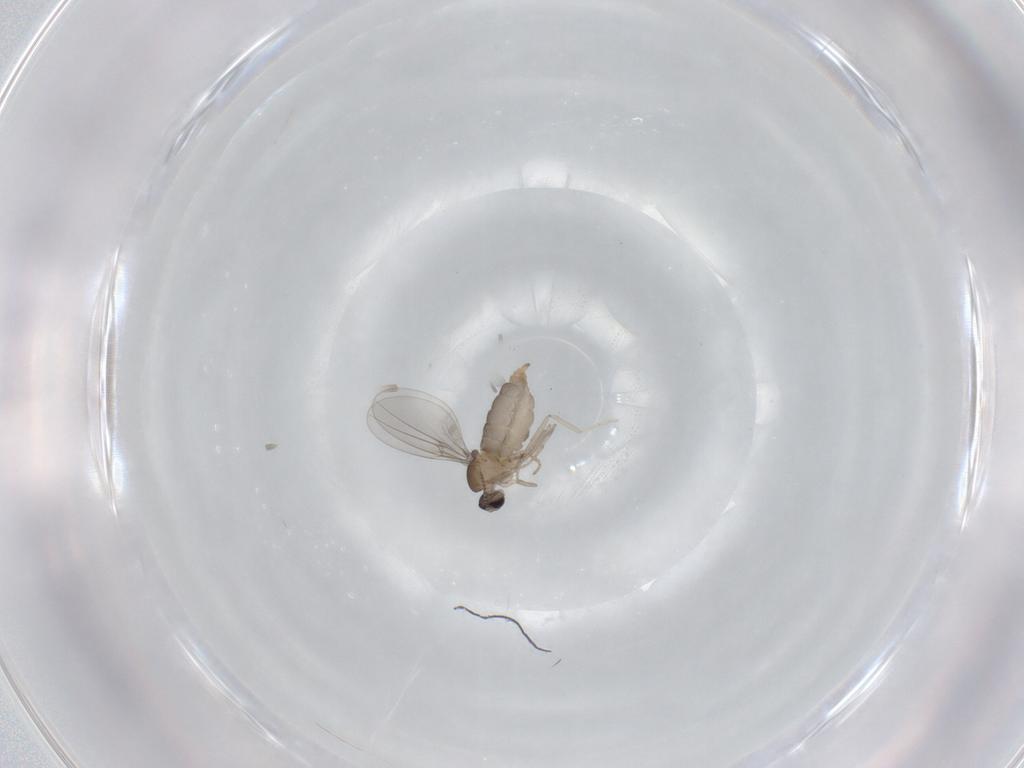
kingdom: Animalia
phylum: Arthropoda
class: Insecta
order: Diptera
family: Cecidomyiidae
